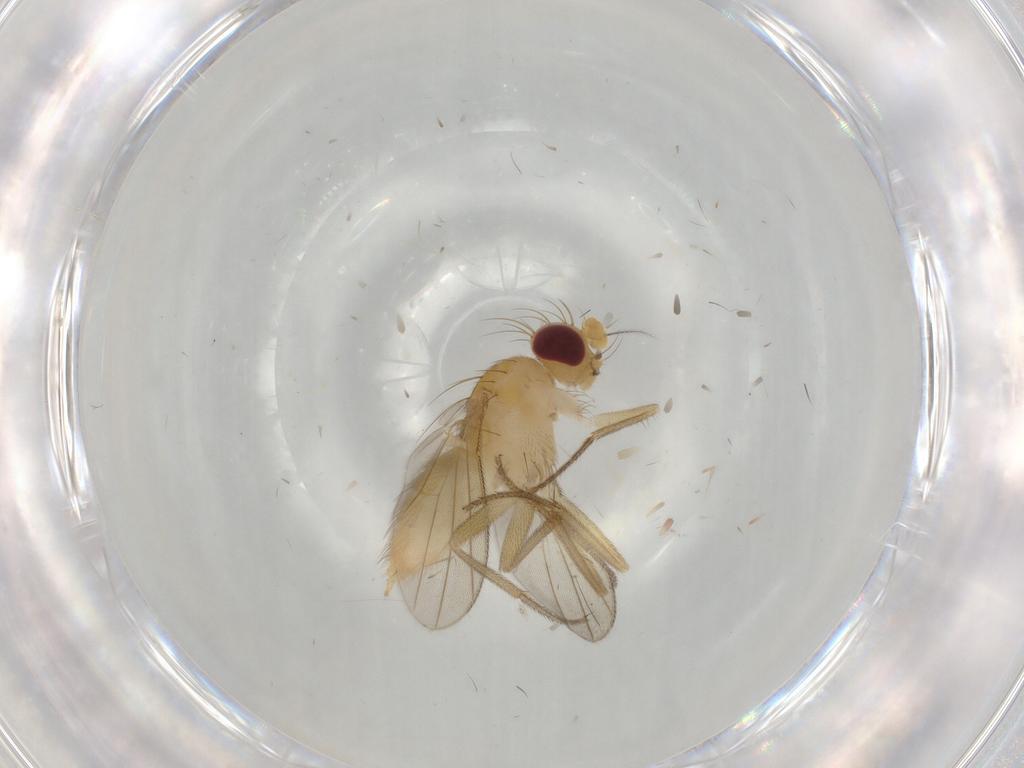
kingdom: Animalia
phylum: Arthropoda
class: Insecta
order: Diptera
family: Clusiidae
